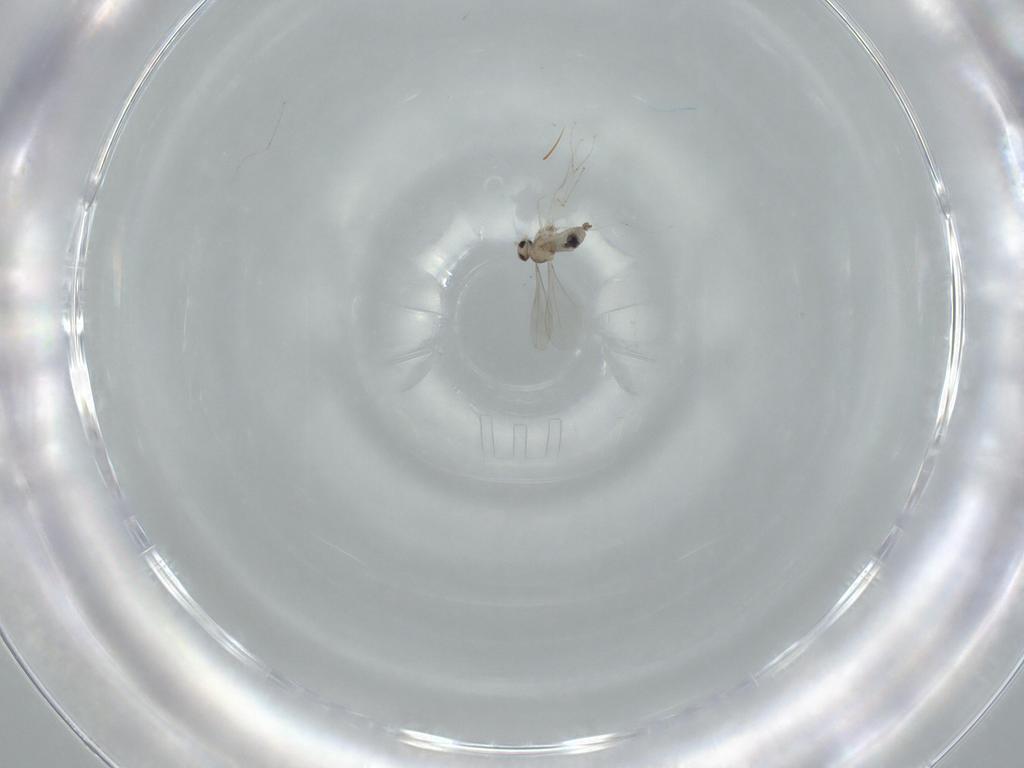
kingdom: Animalia
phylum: Arthropoda
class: Insecta
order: Diptera
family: Cecidomyiidae
